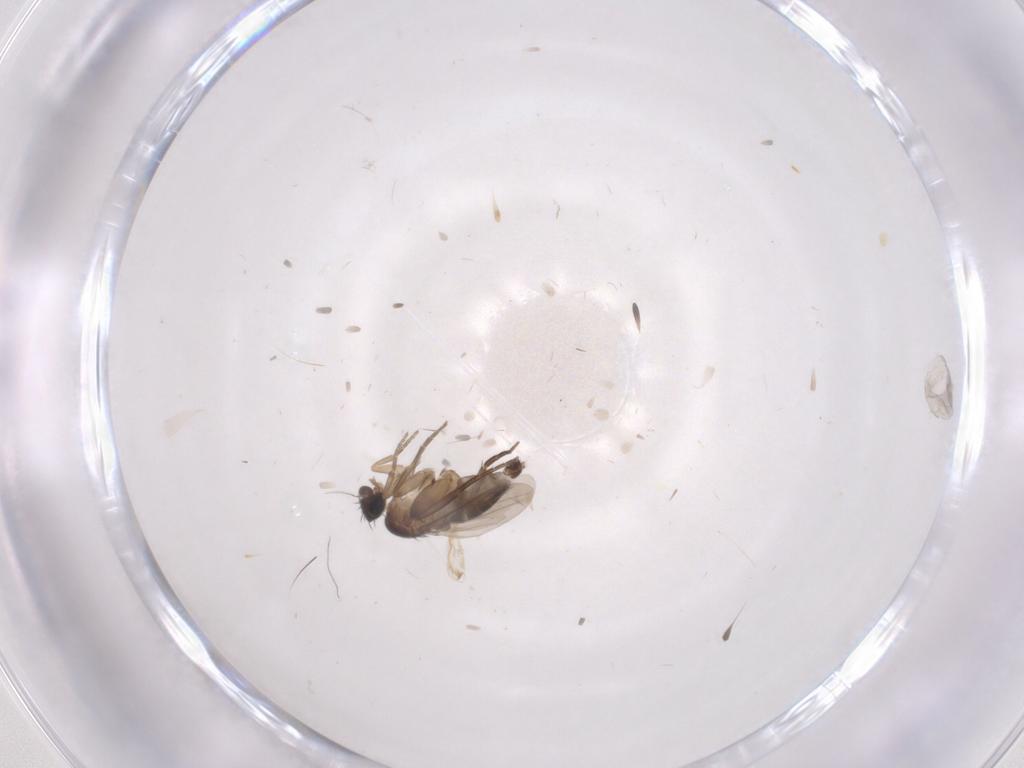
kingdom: Animalia
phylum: Arthropoda
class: Insecta
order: Diptera
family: Phoridae
